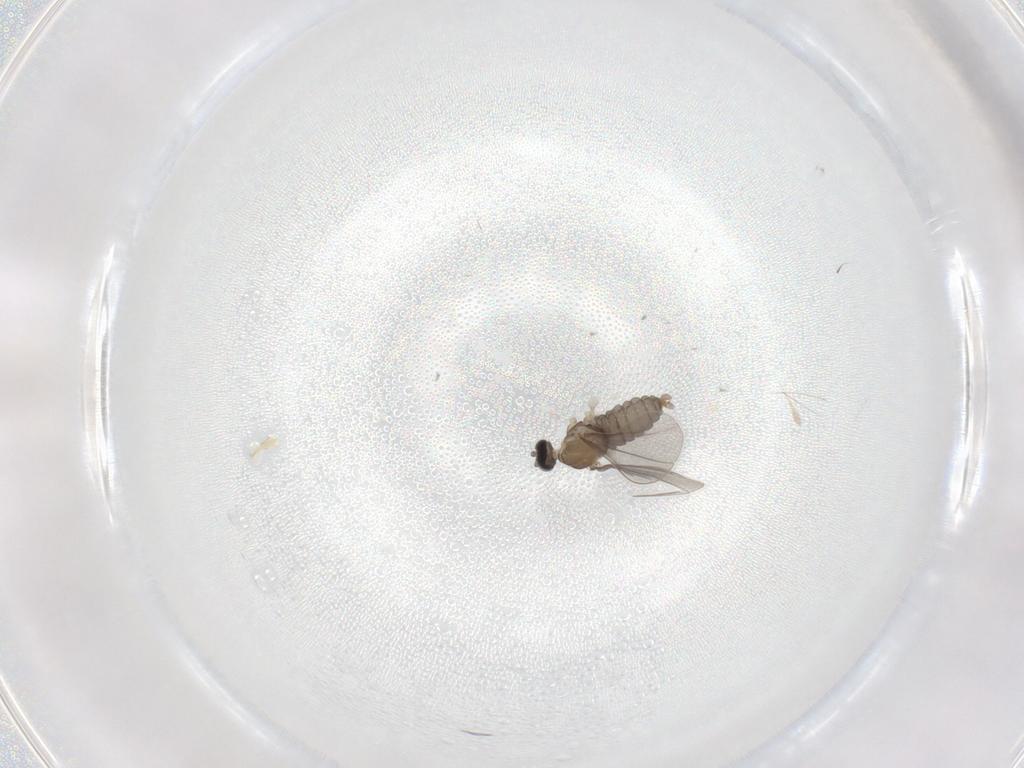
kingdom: Animalia
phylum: Arthropoda
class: Insecta
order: Diptera
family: Cecidomyiidae
